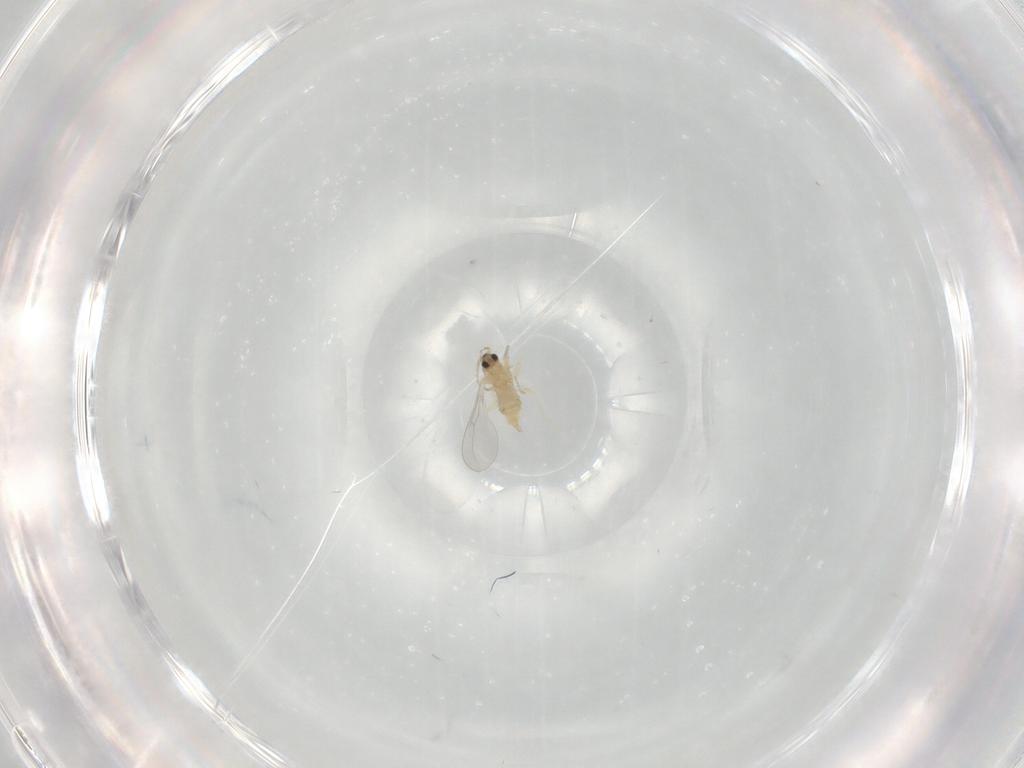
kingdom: Animalia
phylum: Arthropoda
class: Insecta
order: Diptera
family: Cecidomyiidae
